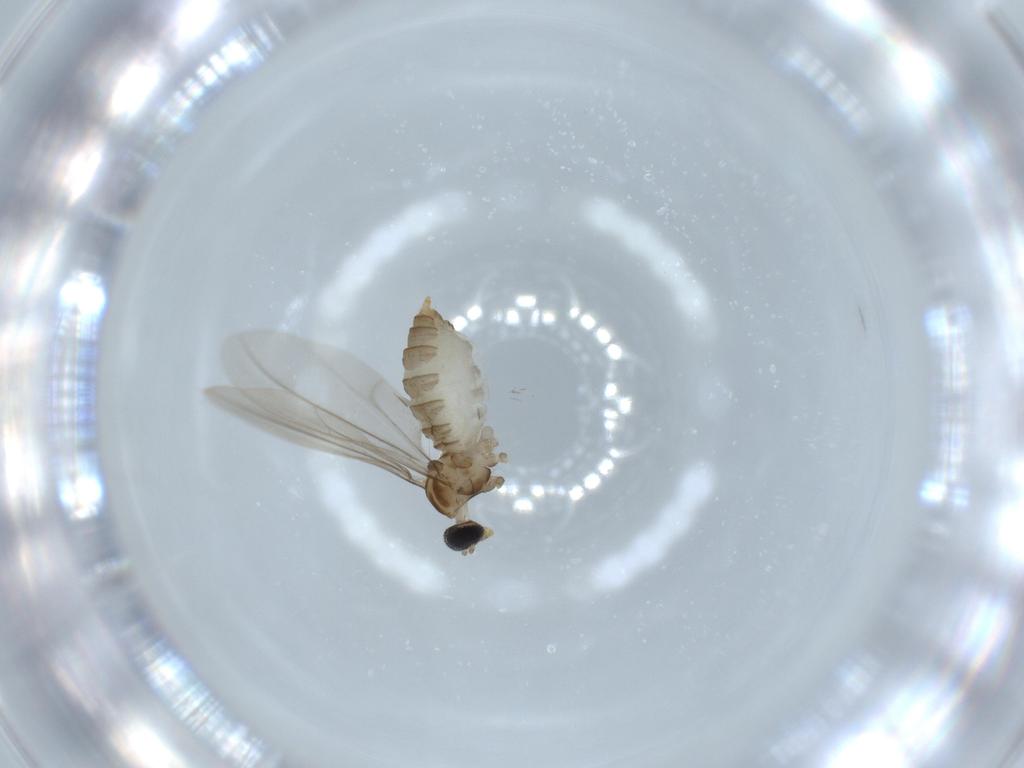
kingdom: Animalia
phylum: Arthropoda
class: Insecta
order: Diptera
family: Cecidomyiidae
